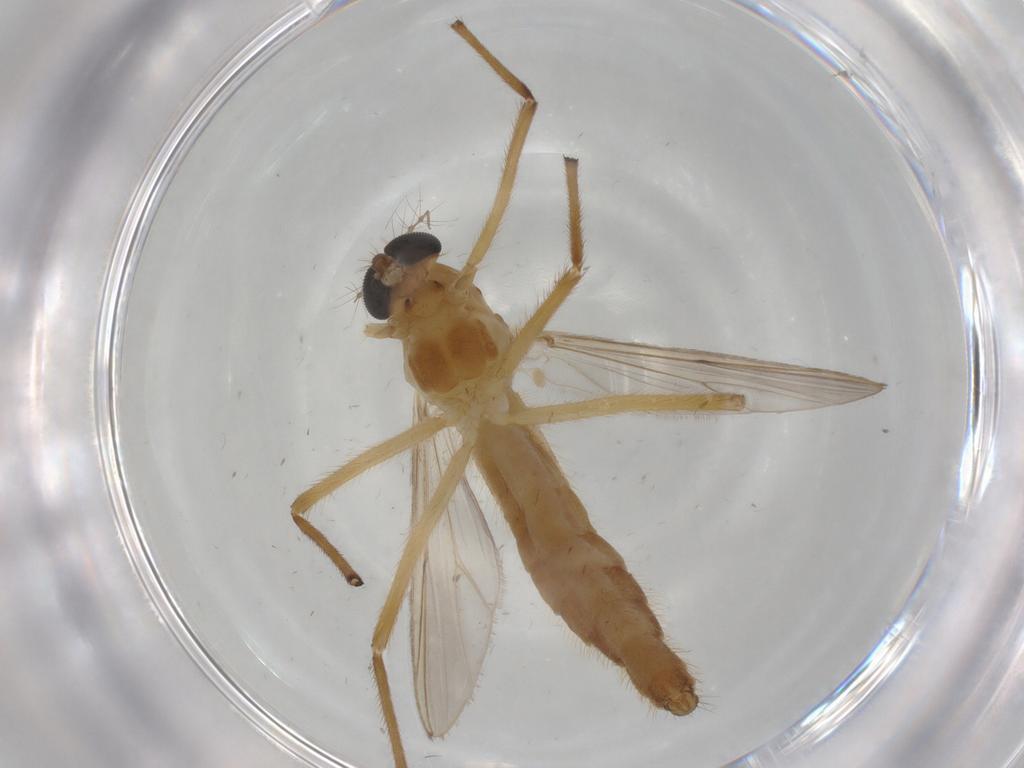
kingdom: Animalia
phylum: Arthropoda
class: Insecta
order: Diptera
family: Chironomidae
